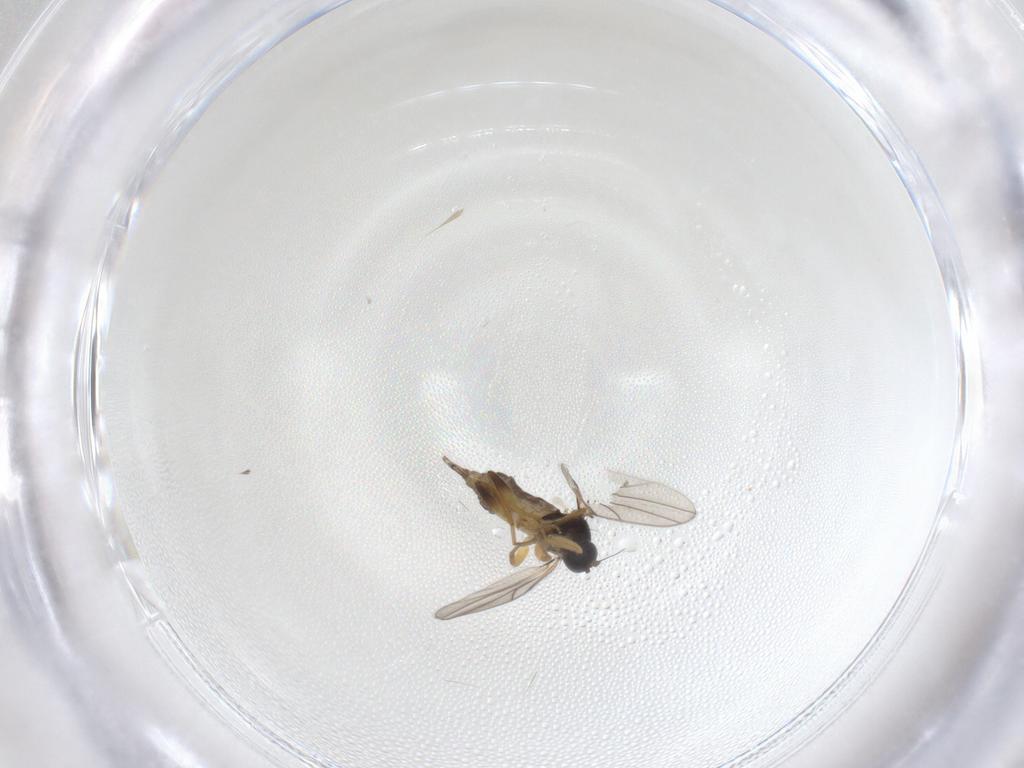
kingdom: Animalia
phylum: Arthropoda
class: Insecta
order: Diptera
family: Hybotidae
